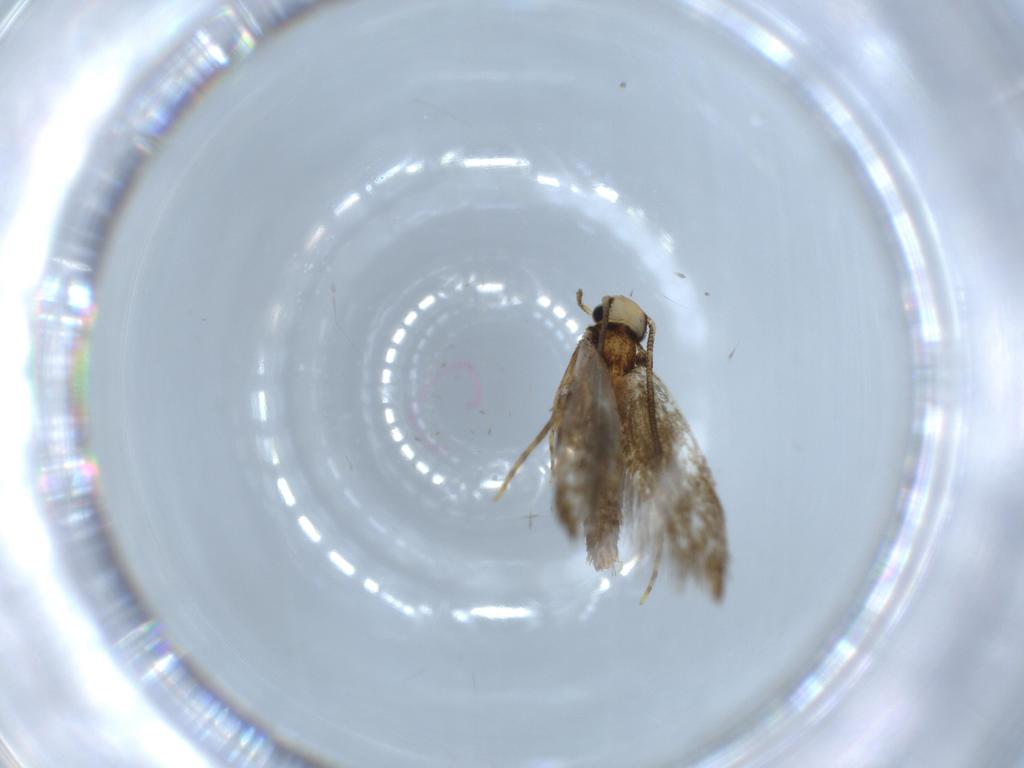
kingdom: Animalia
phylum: Arthropoda
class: Insecta
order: Lepidoptera
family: Tineidae
